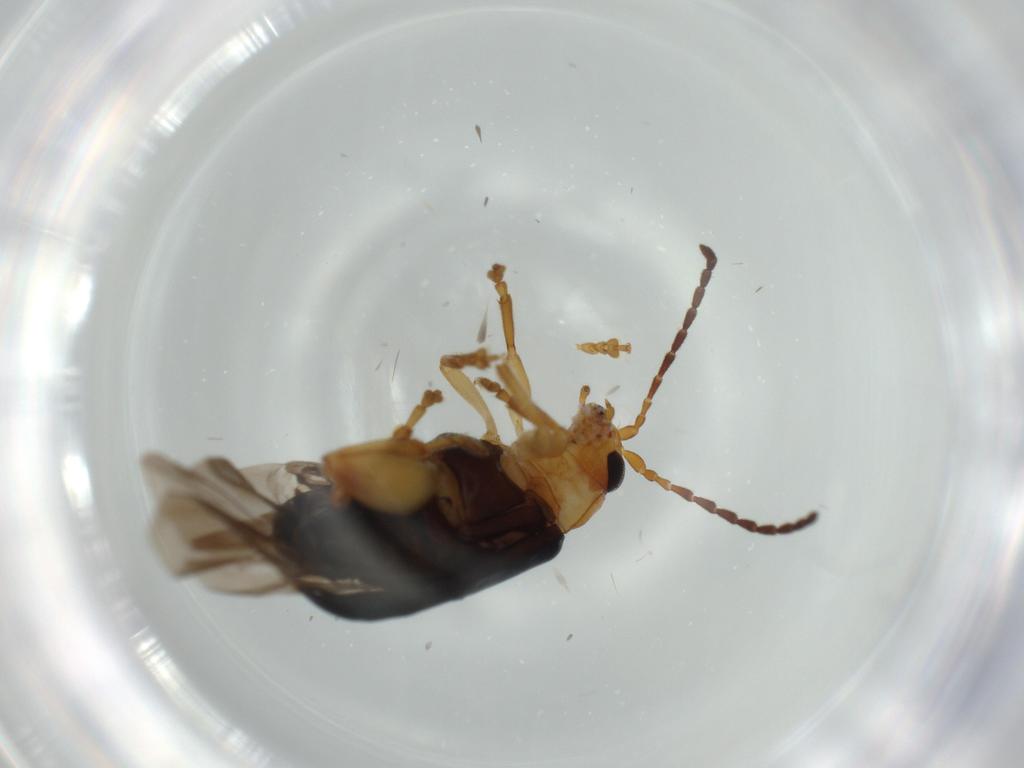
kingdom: Animalia
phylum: Arthropoda
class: Insecta
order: Coleoptera
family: Chrysomelidae
